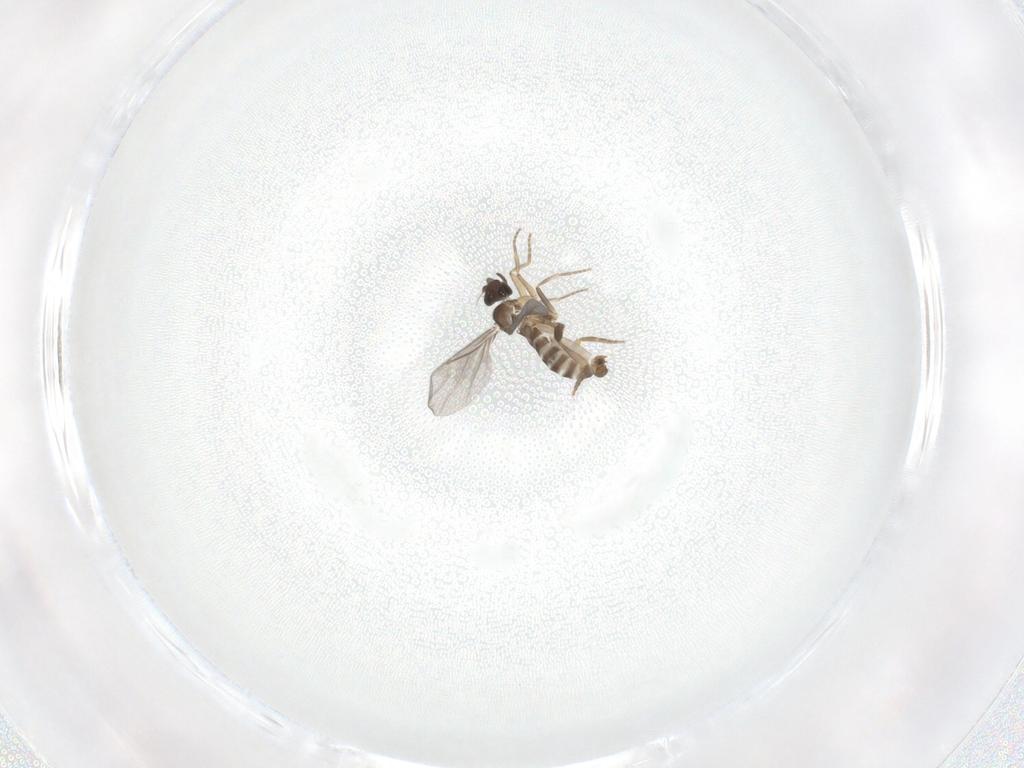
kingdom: Animalia
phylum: Arthropoda
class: Insecta
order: Diptera
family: Chironomidae
